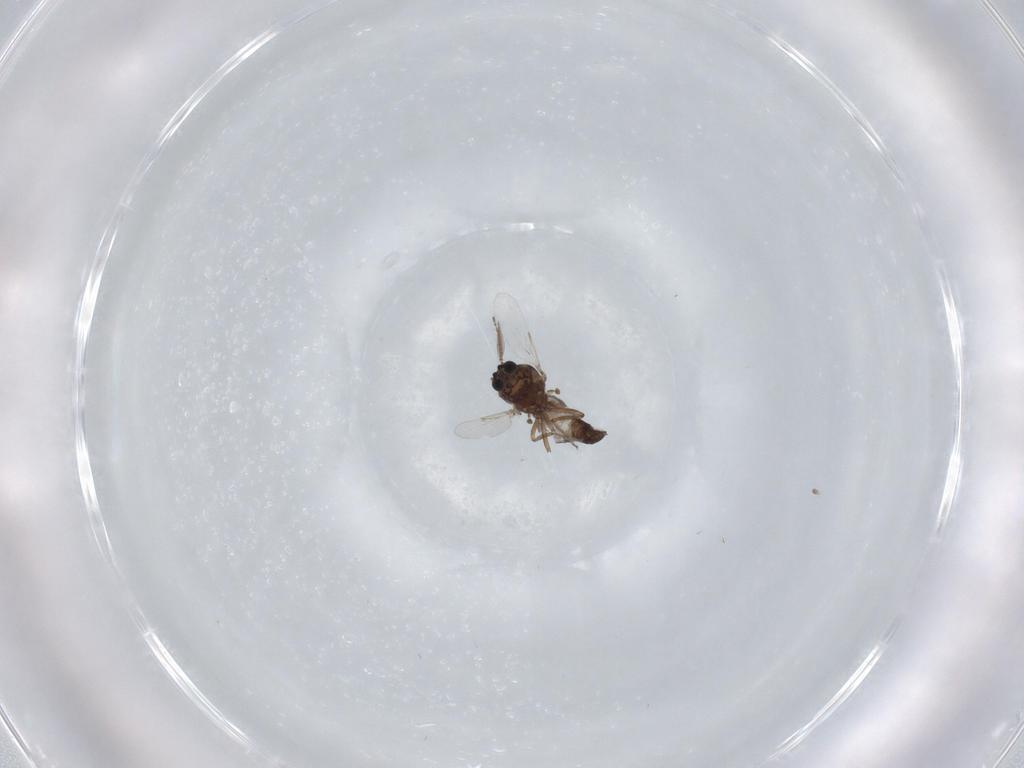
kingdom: Animalia
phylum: Arthropoda
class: Insecta
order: Diptera
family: Ceratopogonidae
